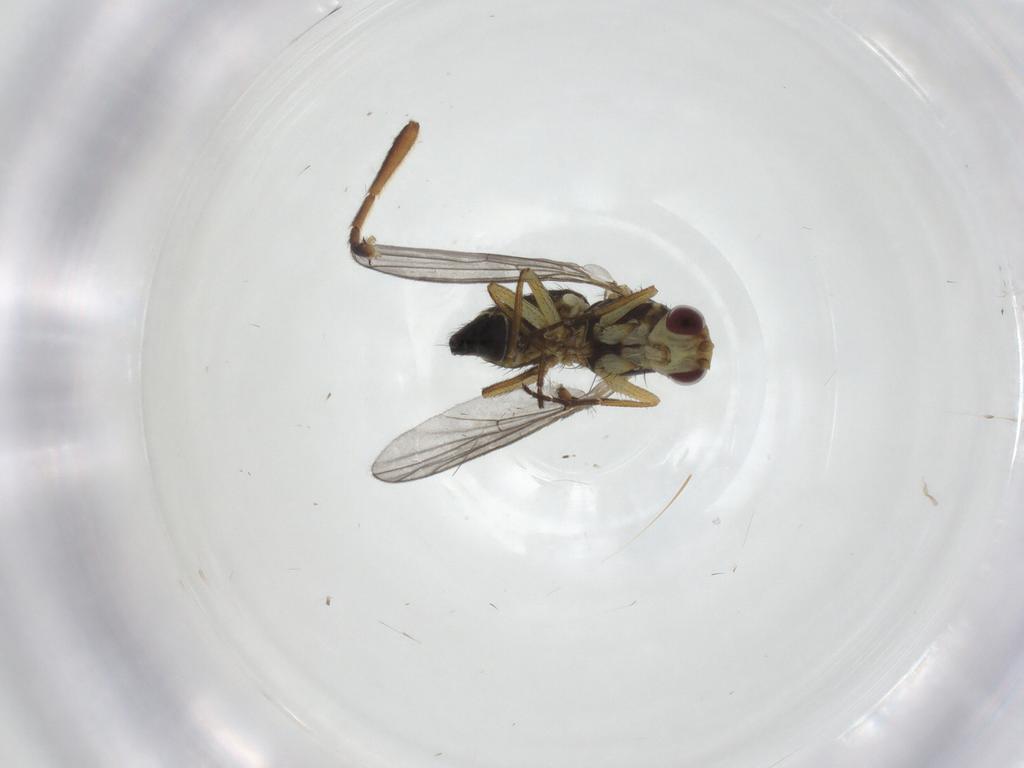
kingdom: Animalia
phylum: Arthropoda
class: Insecta
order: Diptera
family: Agromyzidae
